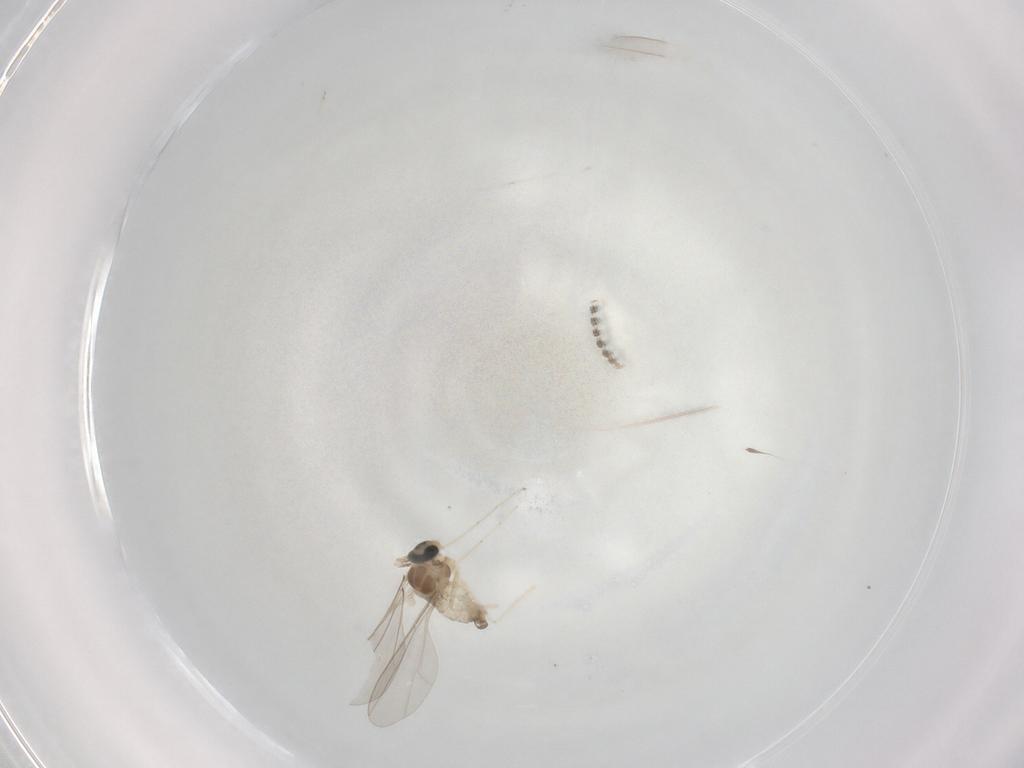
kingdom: Animalia
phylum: Arthropoda
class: Insecta
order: Diptera
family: Cecidomyiidae
